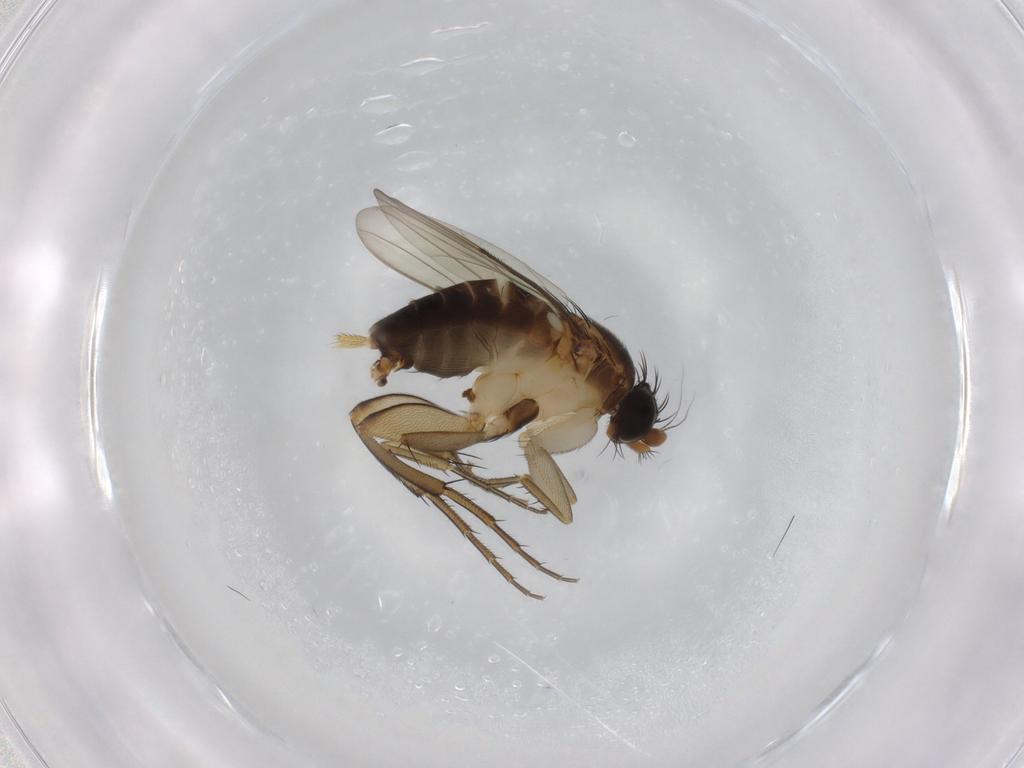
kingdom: Animalia
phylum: Arthropoda
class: Insecta
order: Diptera
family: Phoridae
